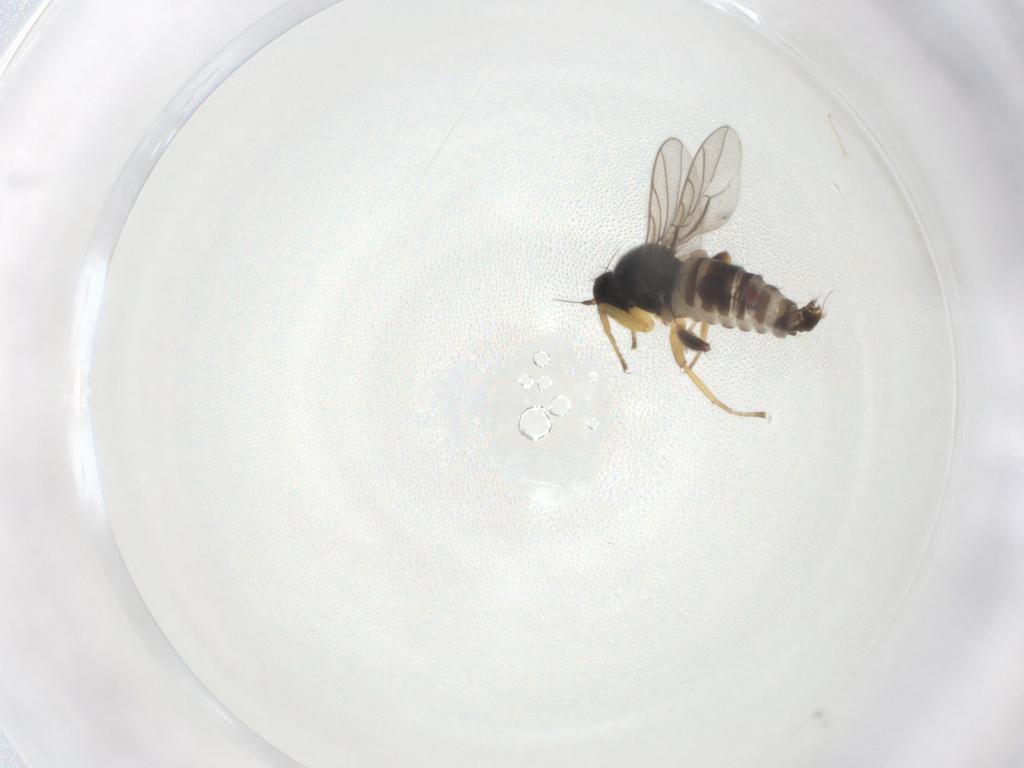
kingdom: Animalia
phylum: Arthropoda
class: Insecta
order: Diptera
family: Hybotidae
